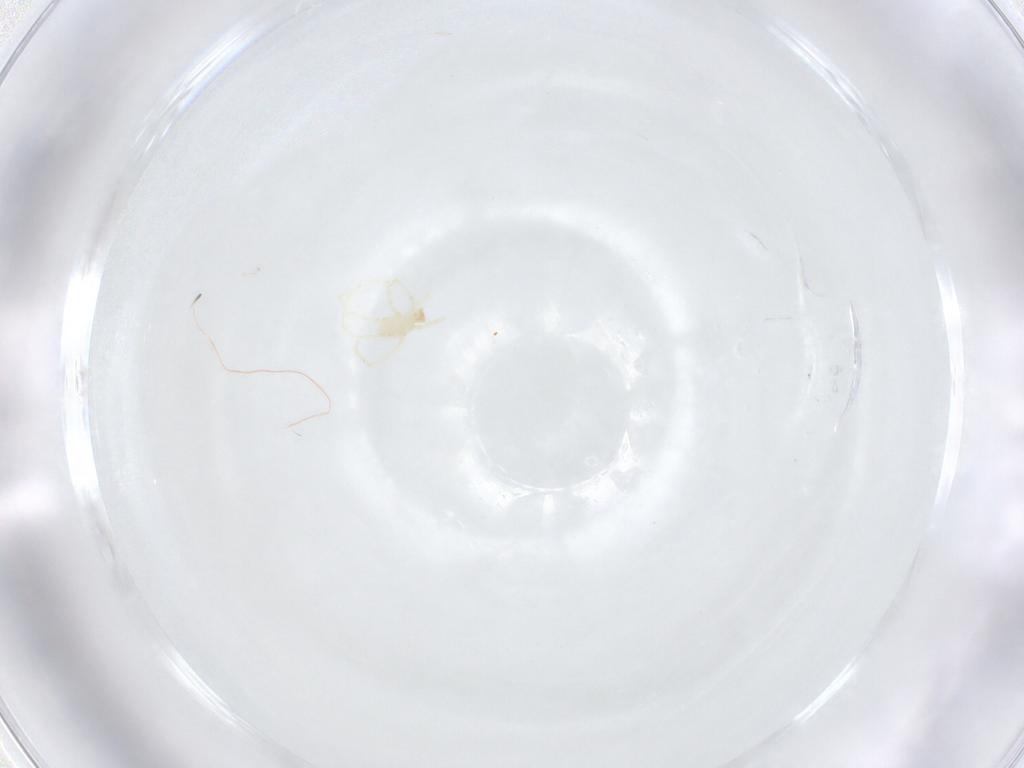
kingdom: Animalia
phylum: Arthropoda
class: Arachnida
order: Trombidiformes
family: Erythraeidae
